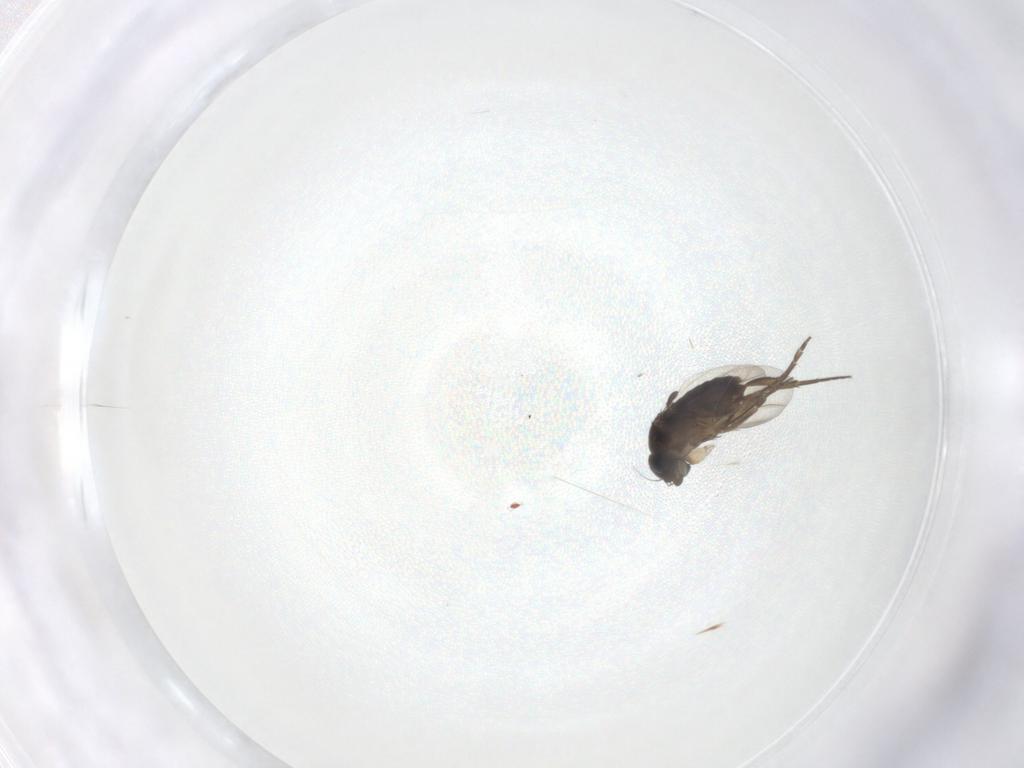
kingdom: Animalia
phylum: Arthropoda
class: Insecta
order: Diptera
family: Phoridae
